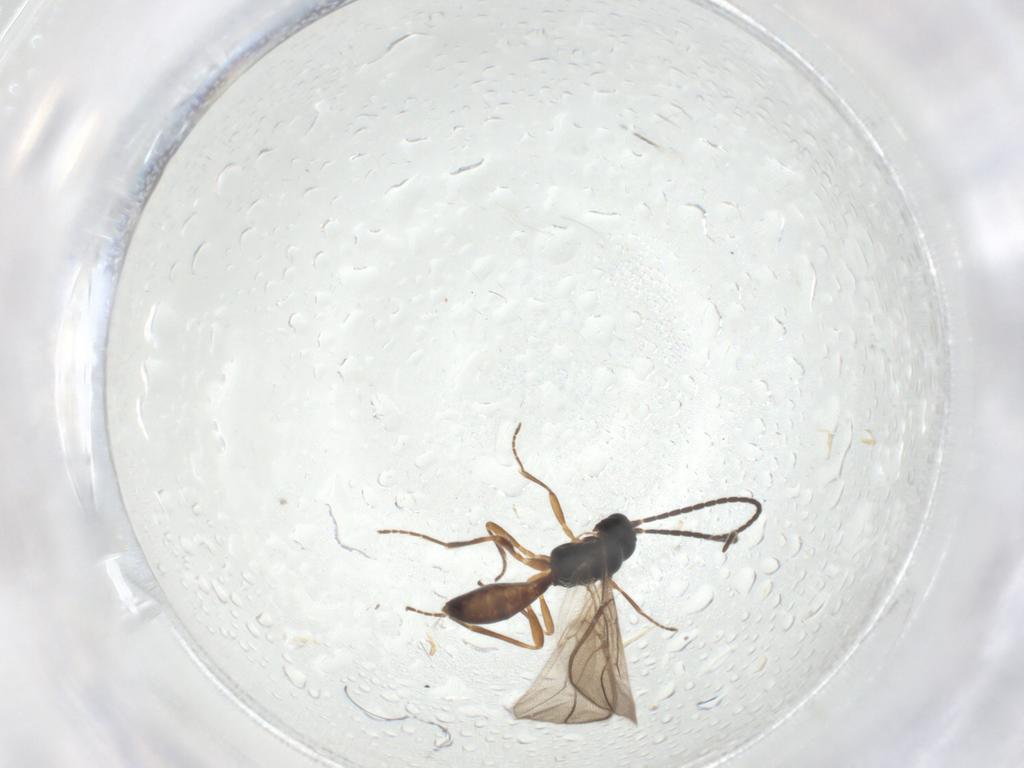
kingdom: Animalia
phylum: Arthropoda
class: Insecta
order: Hymenoptera
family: Braconidae
